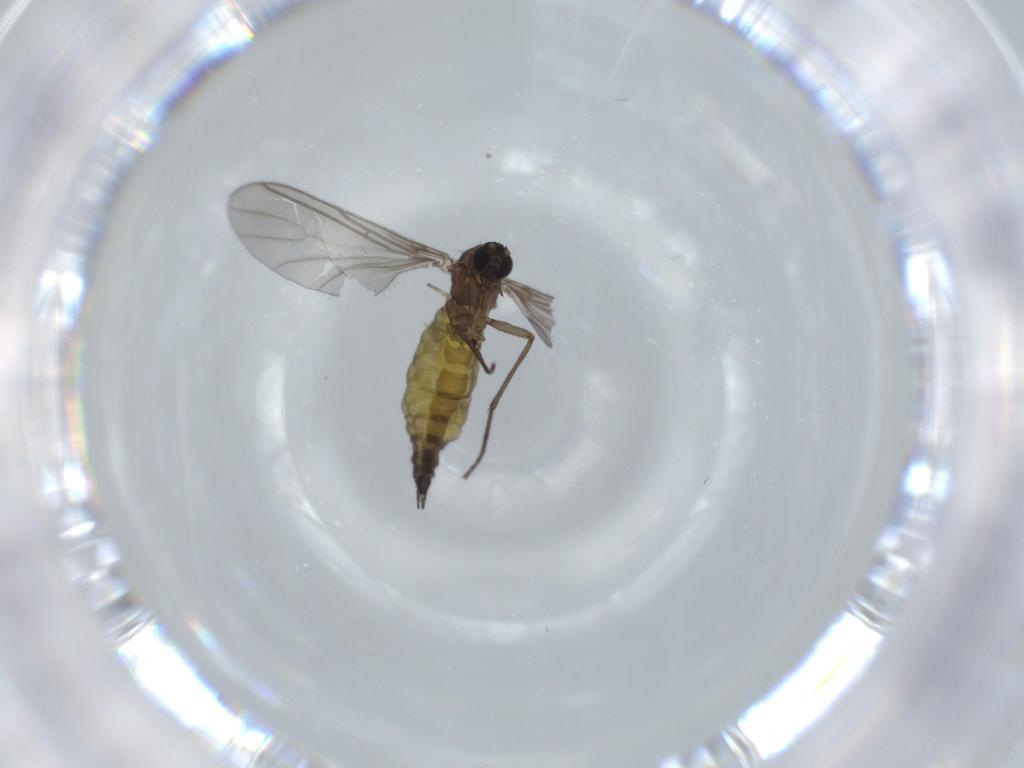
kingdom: Animalia
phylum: Arthropoda
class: Insecta
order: Diptera
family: Sciaridae
